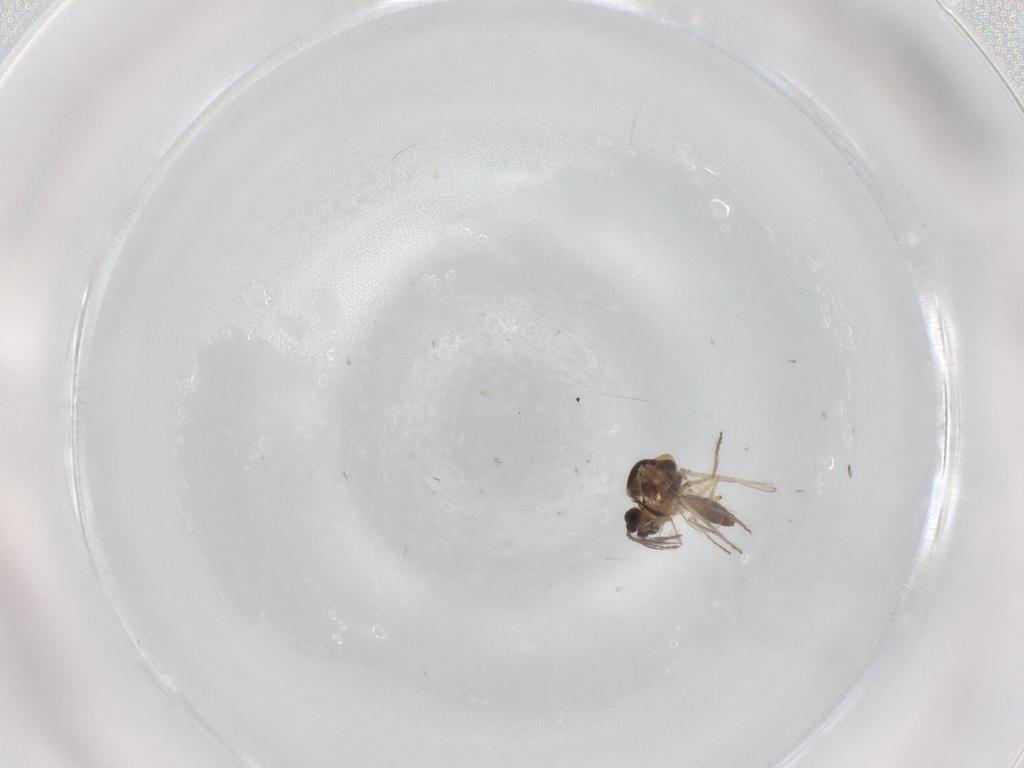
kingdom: Animalia
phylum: Arthropoda
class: Insecta
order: Diptera
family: Ceratopogonidae
